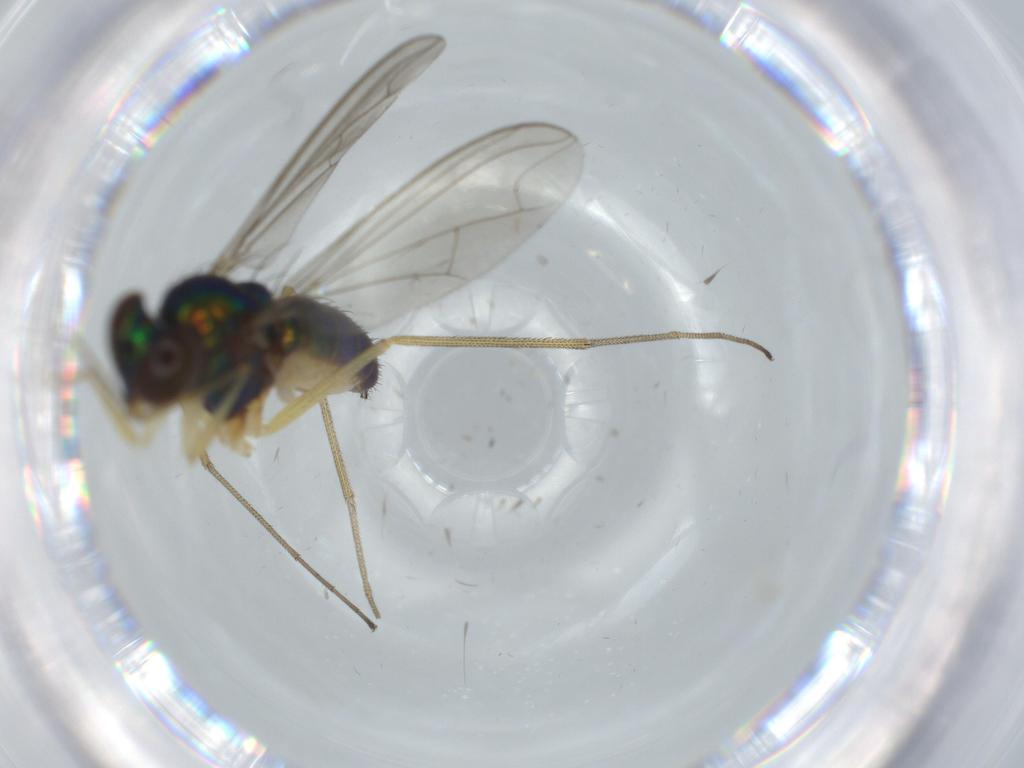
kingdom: Animalia
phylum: Arthropoda
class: Insecta
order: Diptera
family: Dolichopodidae
